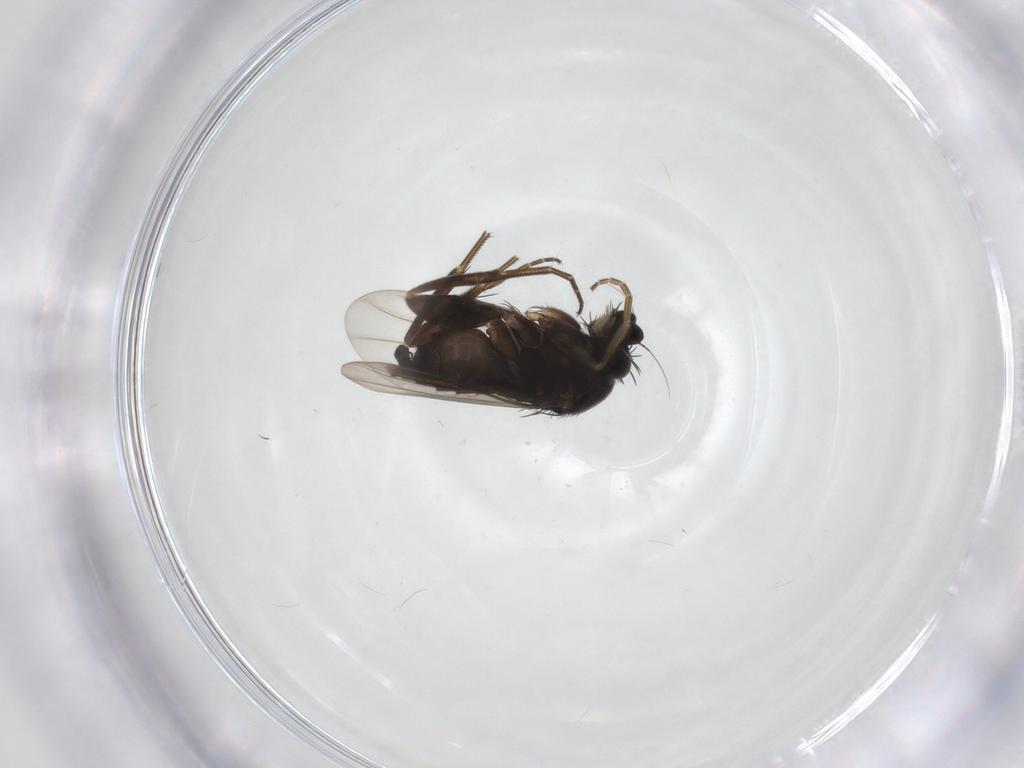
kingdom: Animalia
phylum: Arthropoda
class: Insecta
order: Diptera
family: Phoridae
